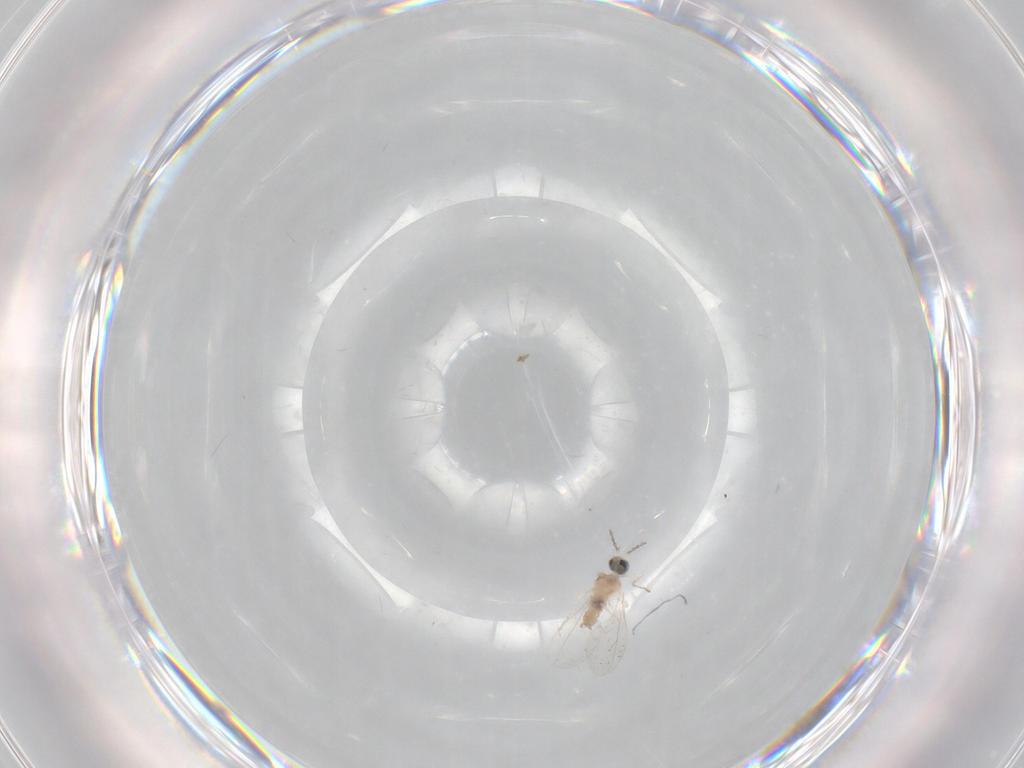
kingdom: Animalia
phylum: Arthropoda
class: Insecta
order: Diptera
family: Cecidomyiidae
